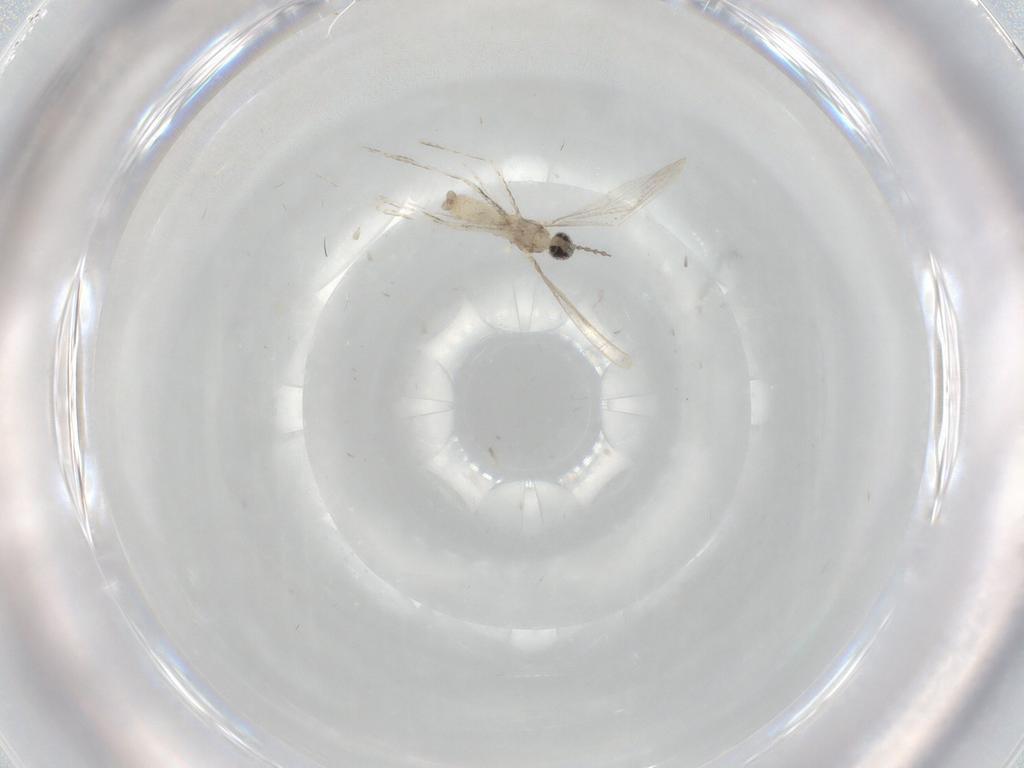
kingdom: Animalia
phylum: Arthropoda
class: Insecta
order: Diptera
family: Cecidomyiidae
